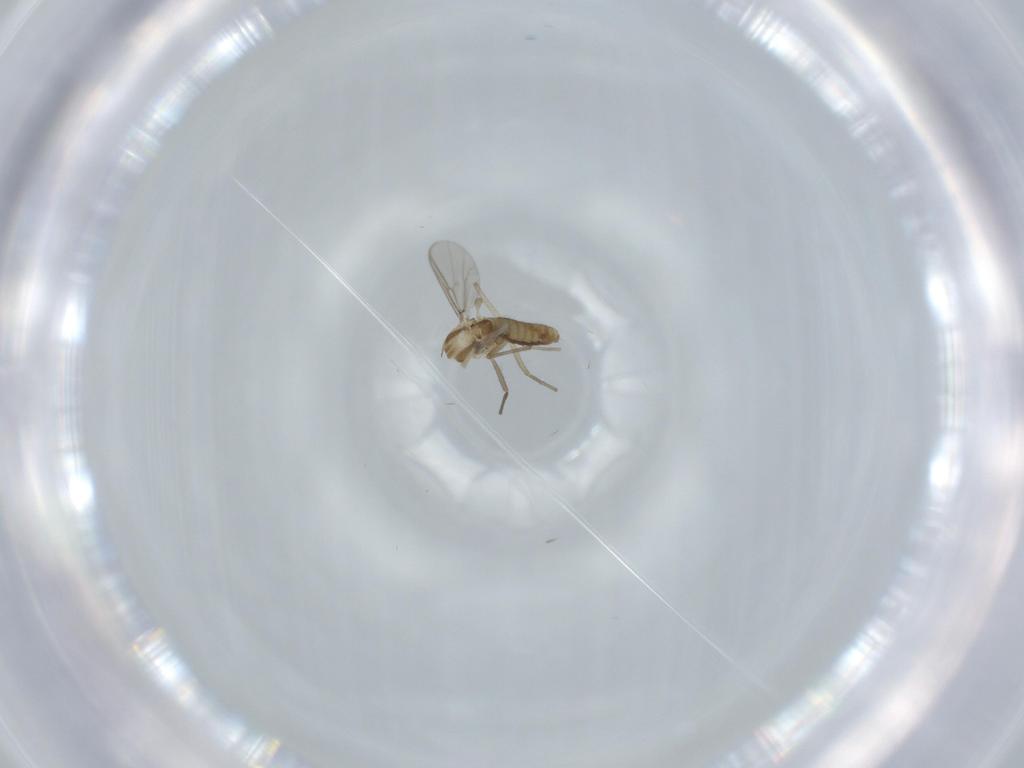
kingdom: Animalia
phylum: Arthropoda
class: Insecta
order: Diptera
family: Chironomidae
